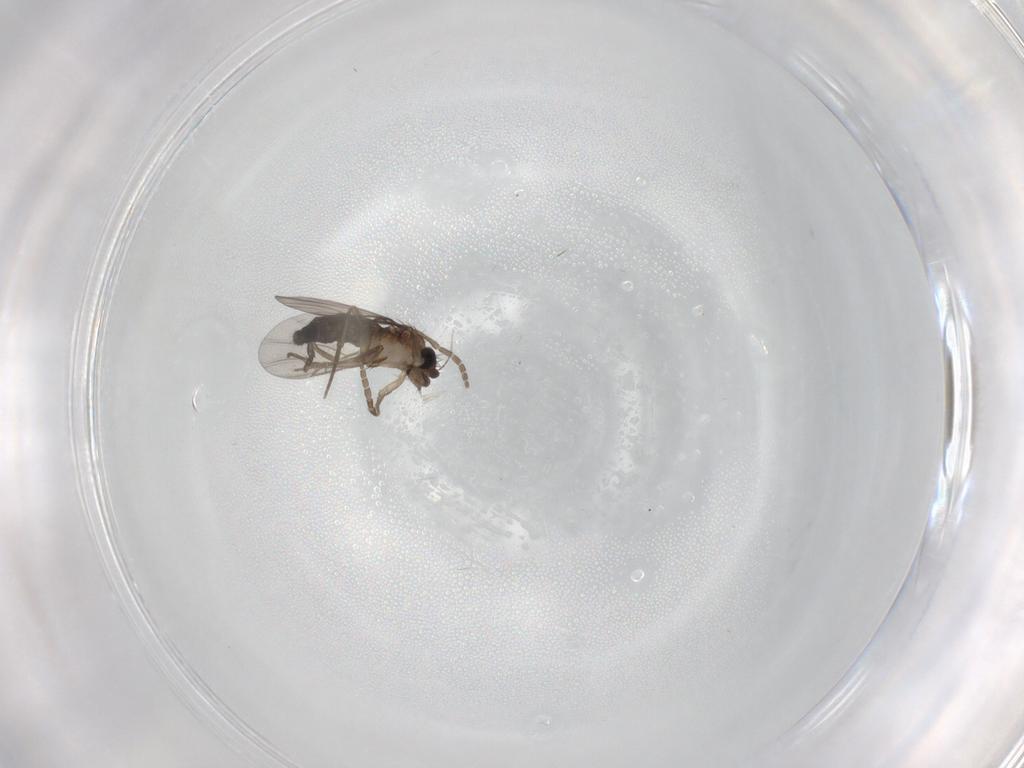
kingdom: Animalia
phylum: Arthropoda
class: Insecta
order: Diptera
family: Phoridae
